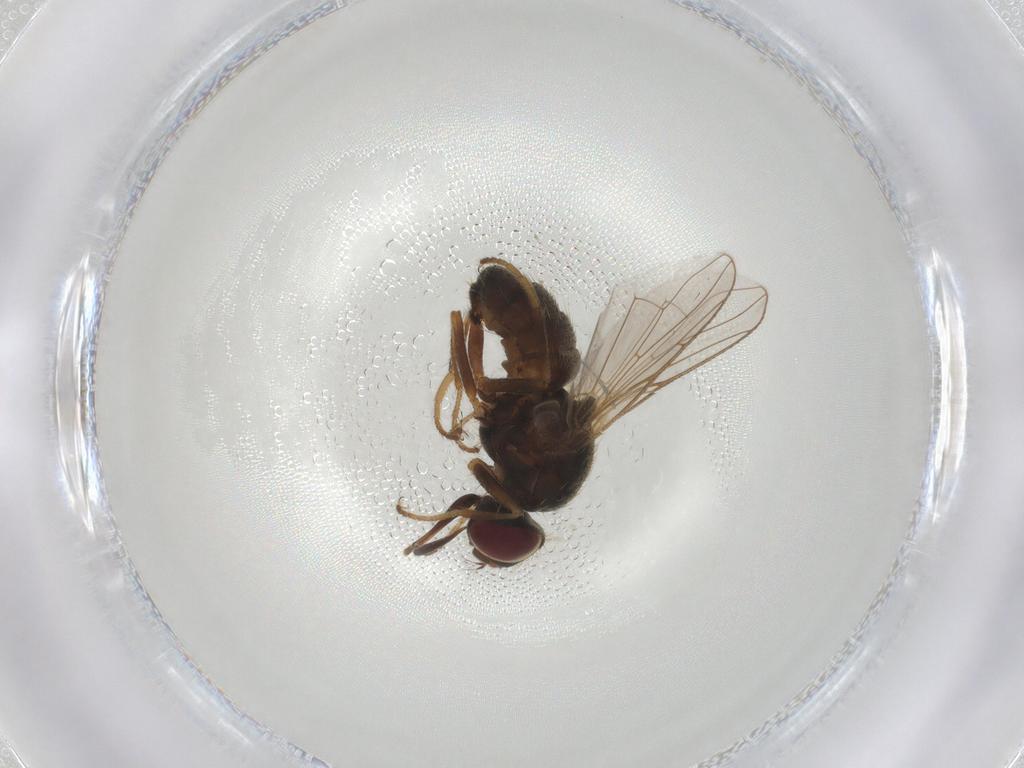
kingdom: Animalia
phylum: Arthropoda
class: Insecta
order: Diptera
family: Muscidae
